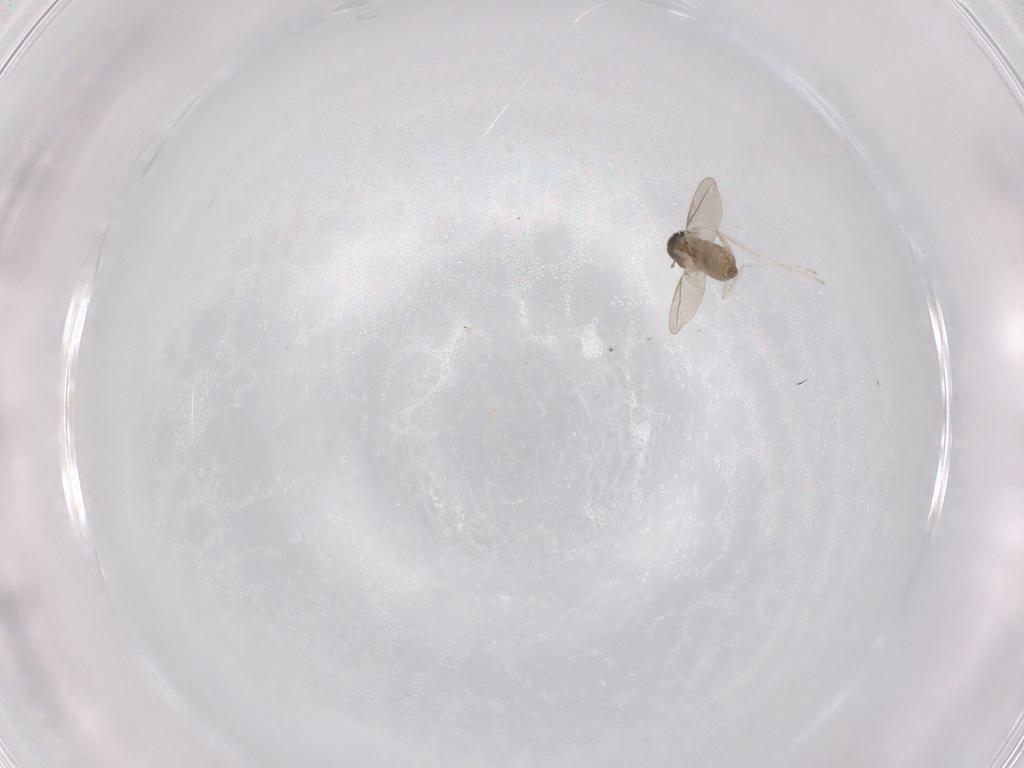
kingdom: Animalia
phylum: Arthropoda
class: Insecta
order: Diptera
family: Cecidomyiidae
